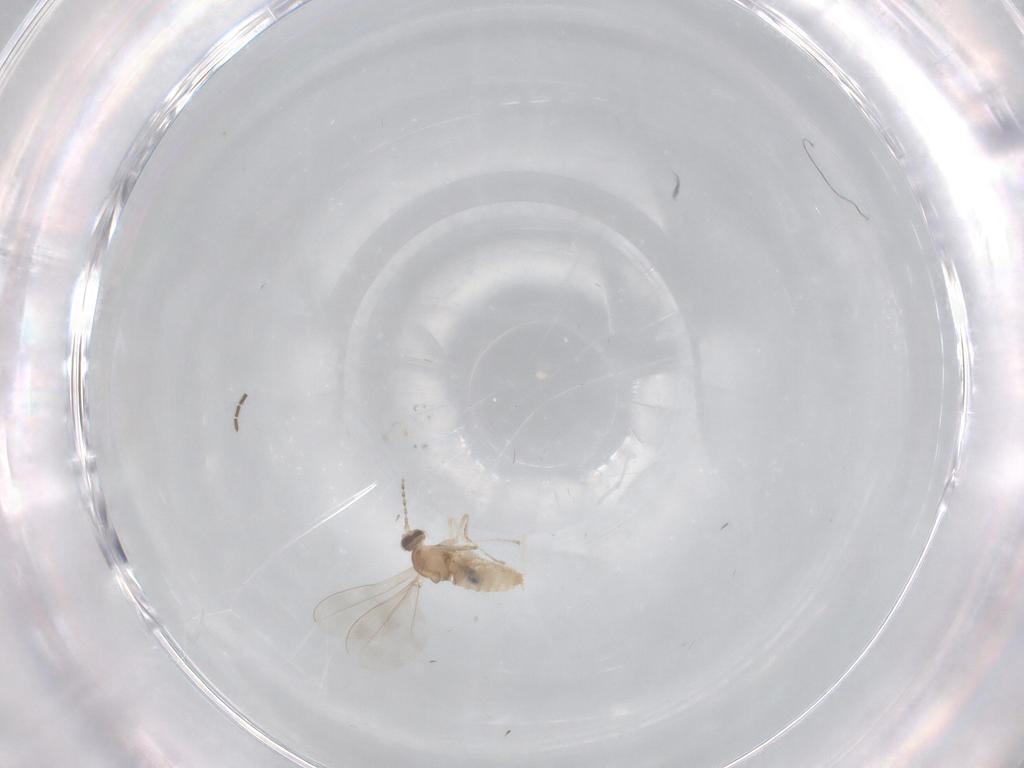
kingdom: Animalia
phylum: Arthropoda
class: Insecta
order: Diptera
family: Cecidomyiidae
